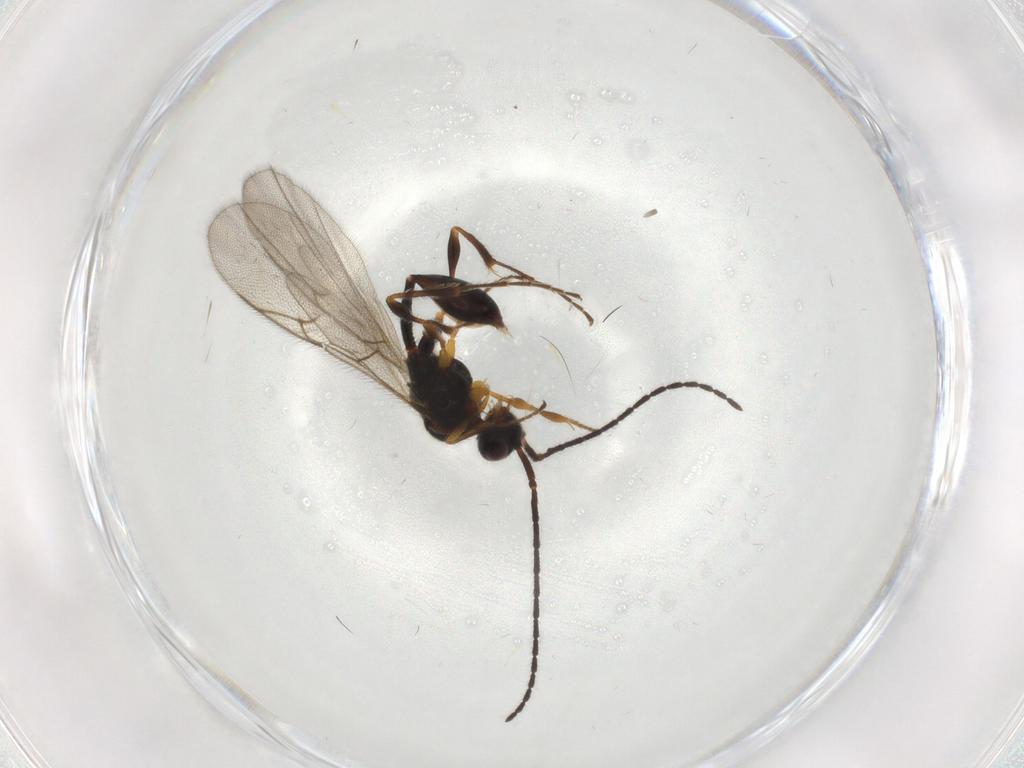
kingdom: Animalia
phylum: Arthropoda
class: Insecta
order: Hymenoptera
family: Diapriidae
